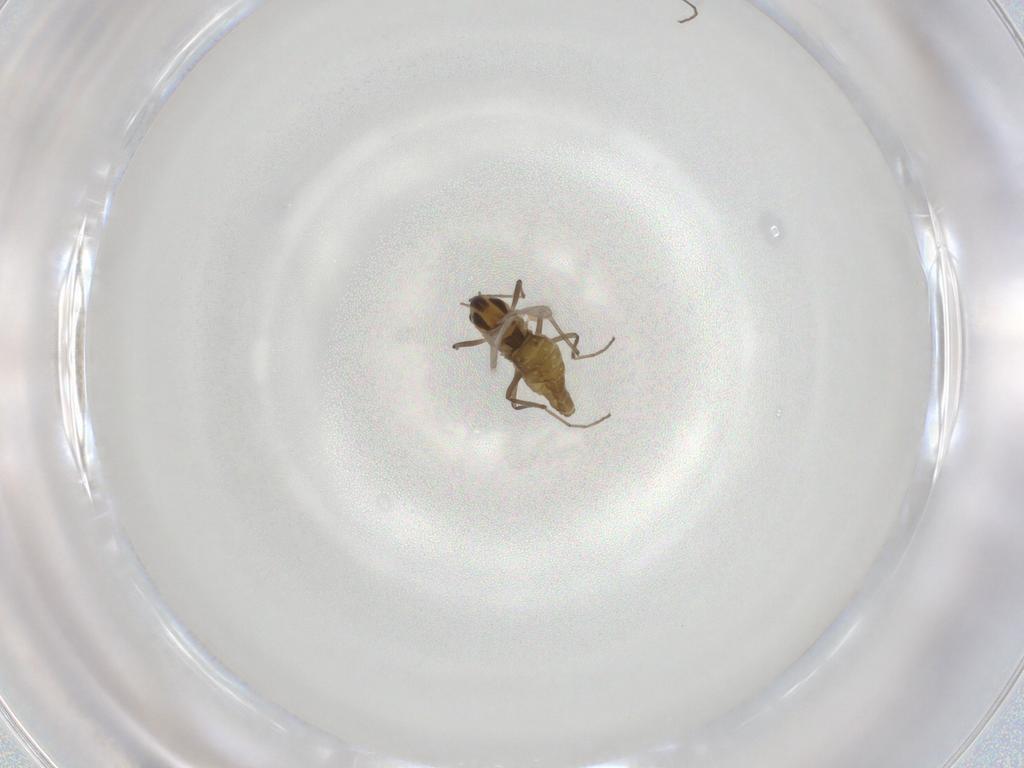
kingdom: Animalia
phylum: Arthropoda
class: Insecta
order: Diptera
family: Chironomidae
